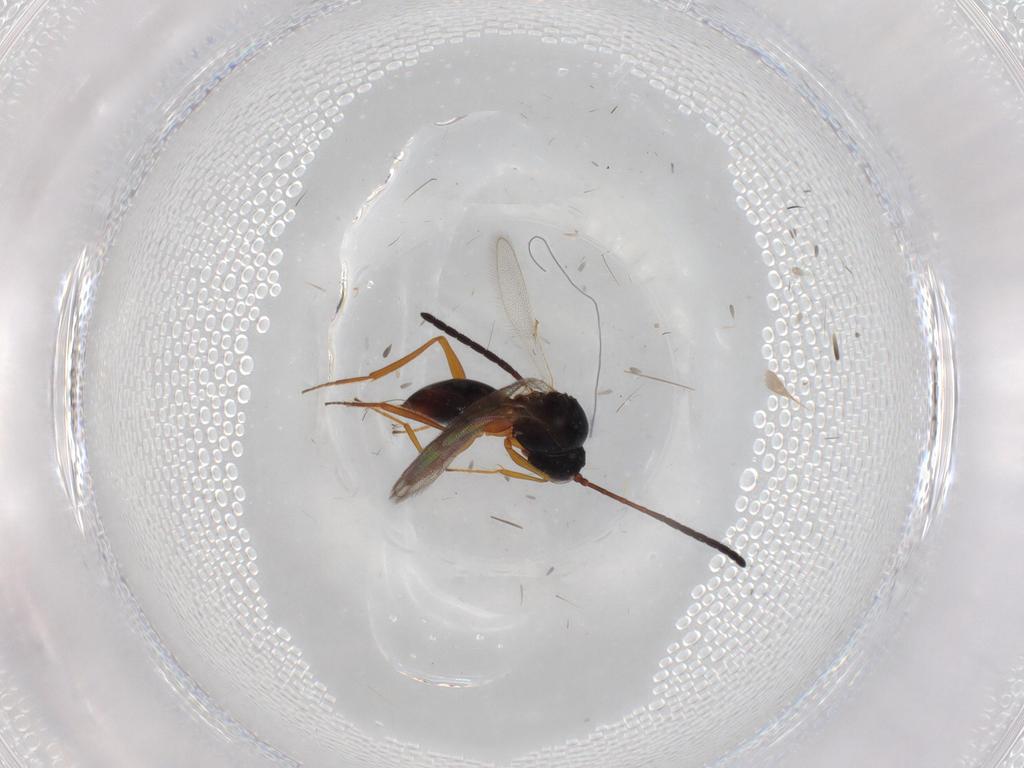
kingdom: Animalia
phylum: Arthropoda
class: Insecta
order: Hymenoptera
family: Figitidae
